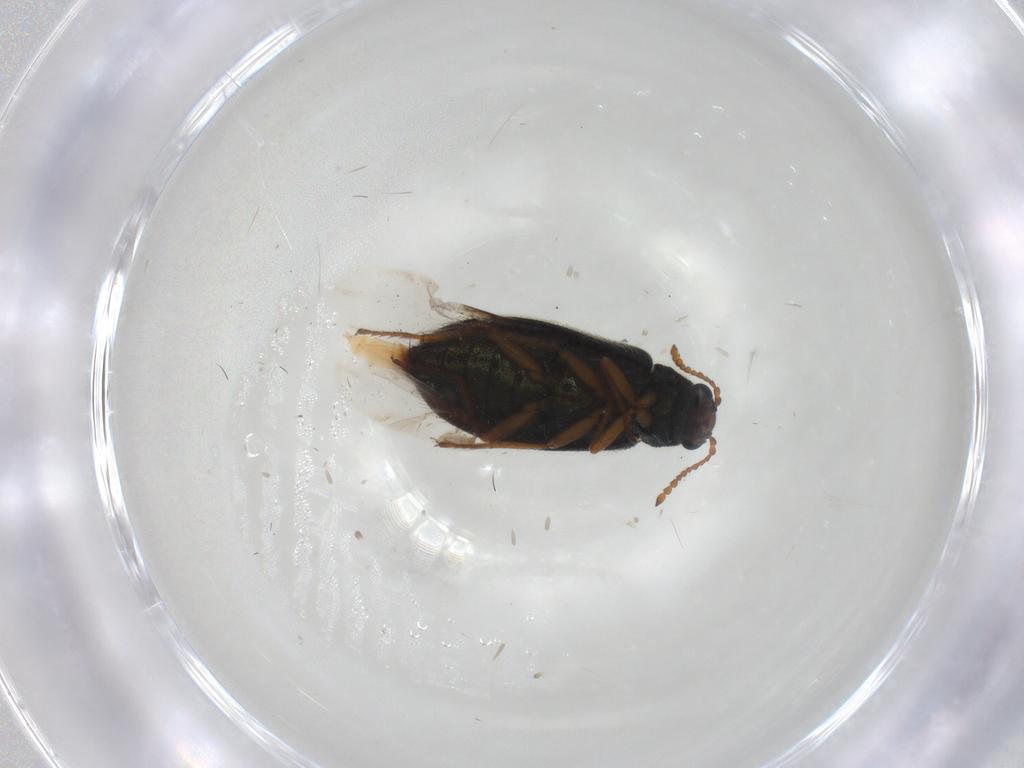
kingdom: Animalia
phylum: Arthropoda
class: Insecta
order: Coleoptera
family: Melyridae
